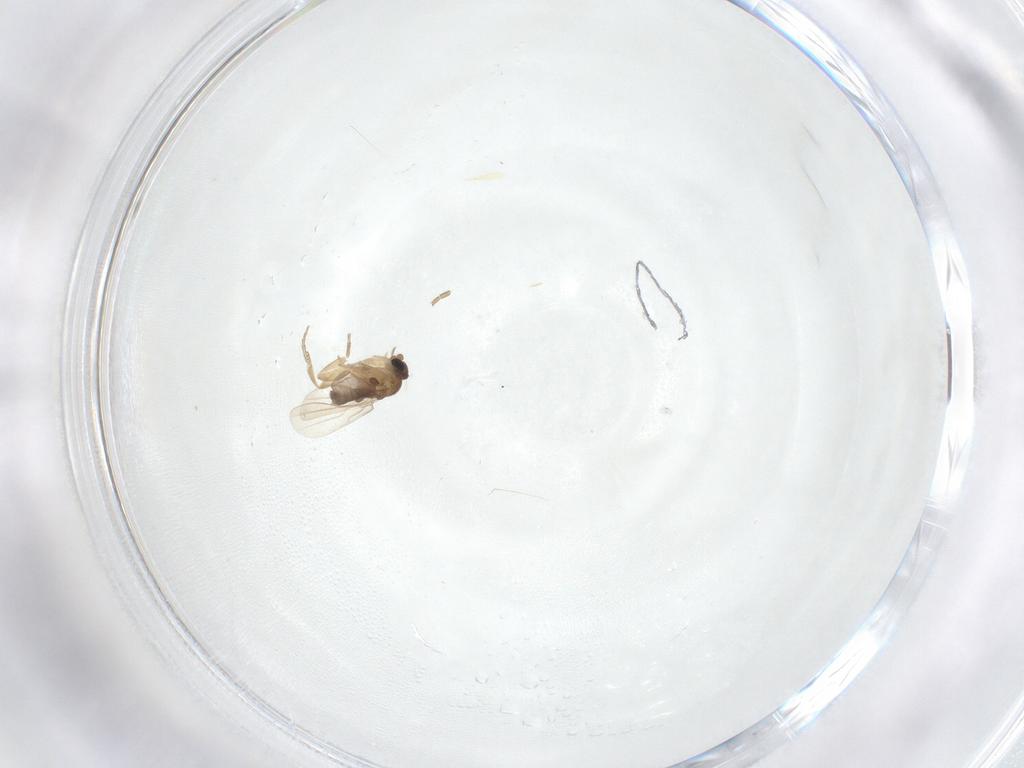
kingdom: Animalia
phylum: Arthropoda
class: Insecta
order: Diptera
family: Phoridae
